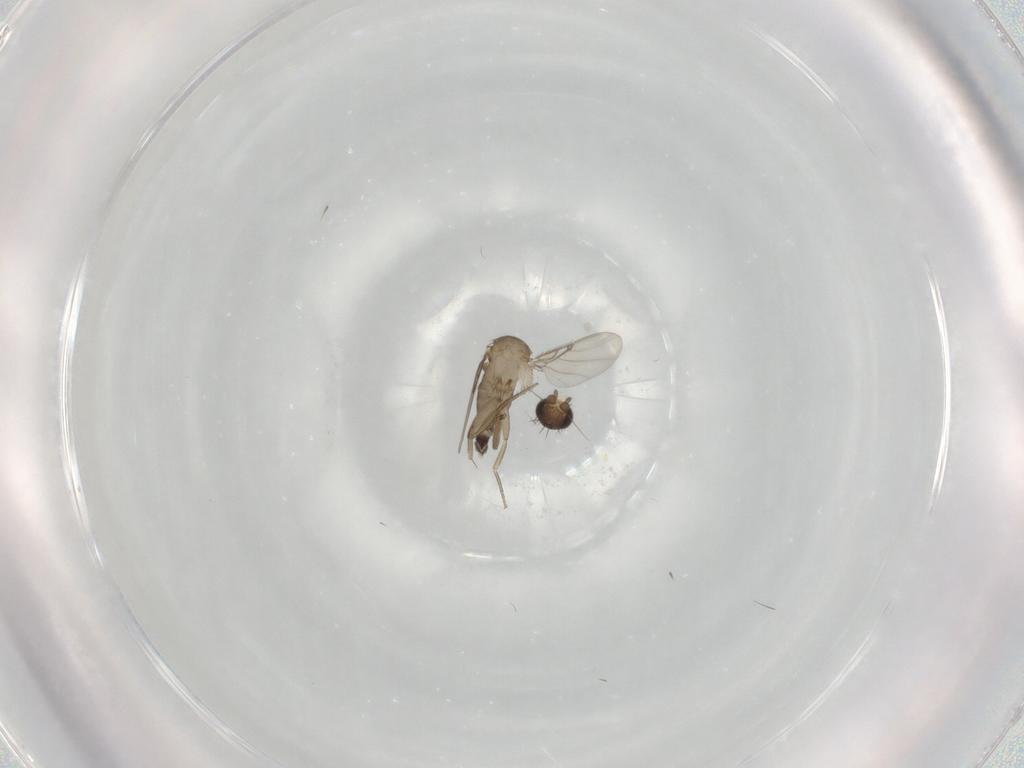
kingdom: Animalia
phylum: Arthropoda
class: Insecta
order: Diptera
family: Phoridae
